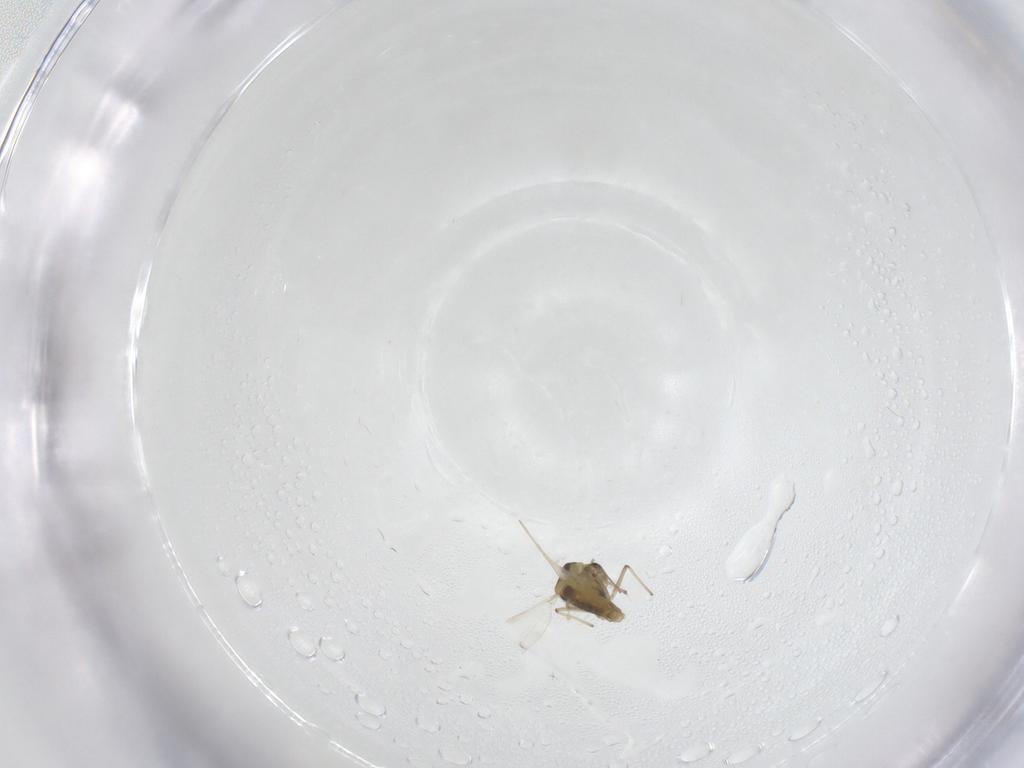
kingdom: Animalia
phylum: Arthropoda
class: Insecta
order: Diptera
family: Chironomidae
